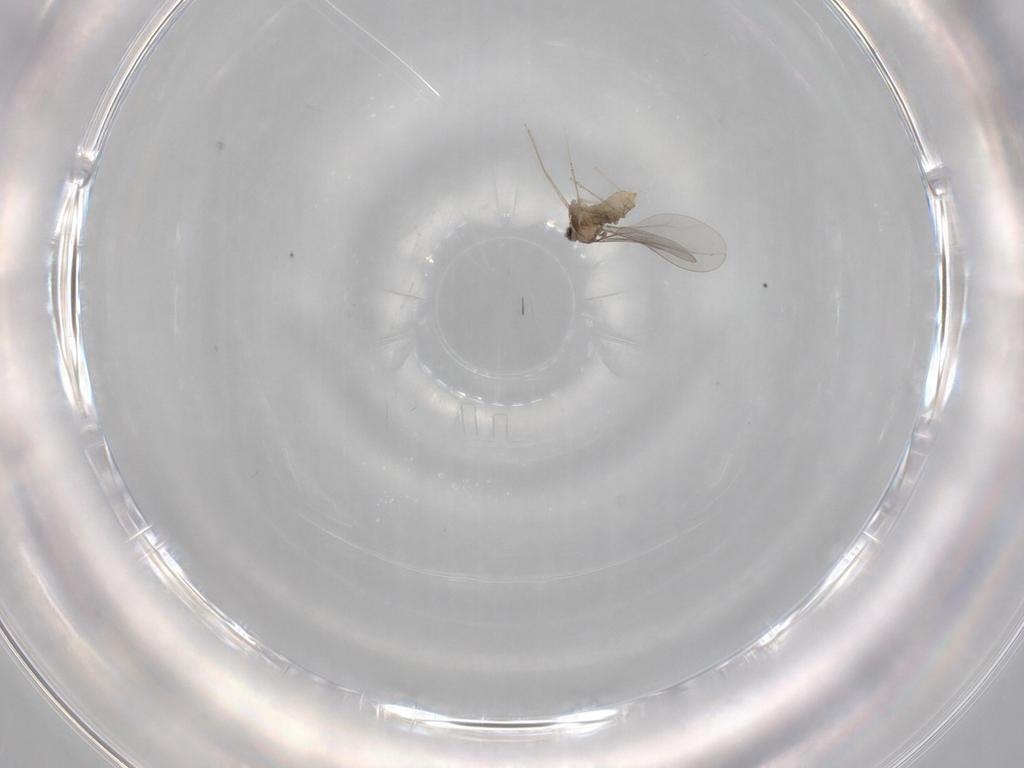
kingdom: Animalia
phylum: Arthropoda
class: Insecta
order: Diptera
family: Cecidomyiidae
